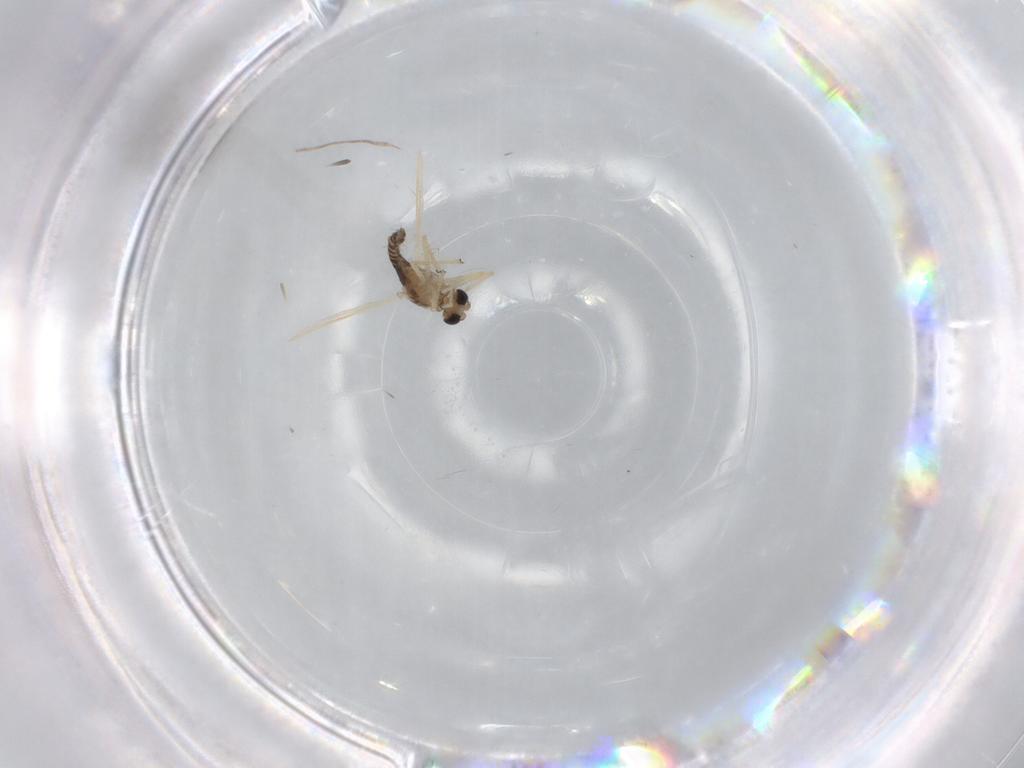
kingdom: Animalia
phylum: Arthropoda
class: Insecta
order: Diptera
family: Chironomidae
